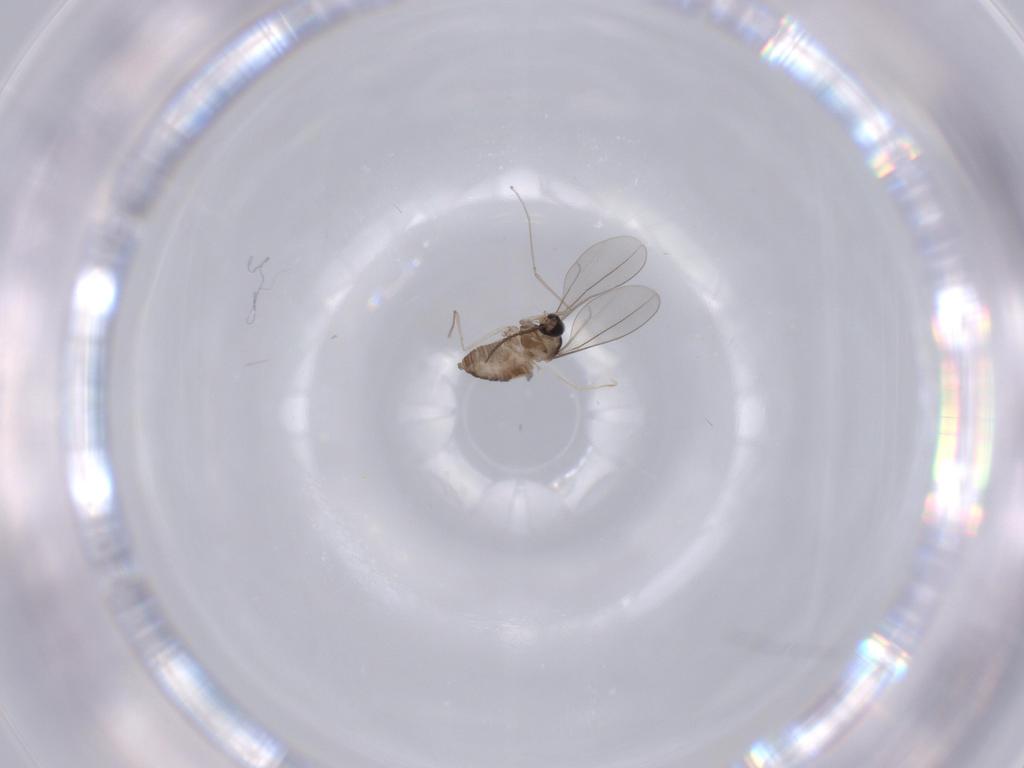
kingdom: Animalia
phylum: Arthropoda
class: Insecta
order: Diptera
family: Cecidomyiidae
